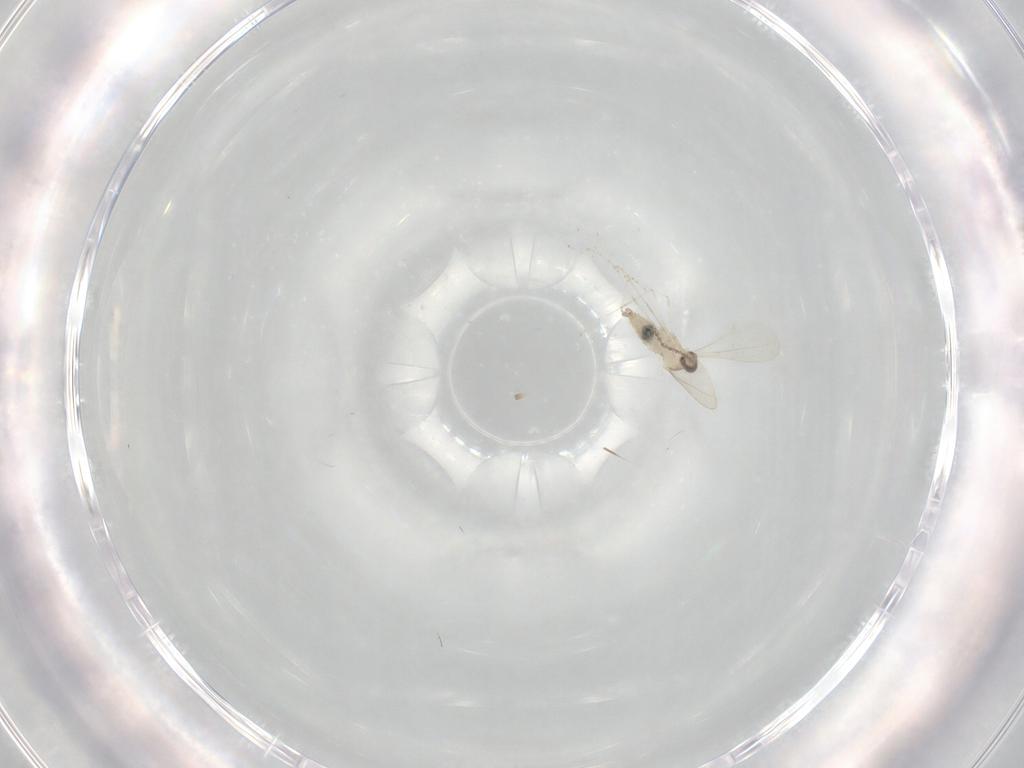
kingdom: Animalia
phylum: Arthropoda
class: Insecta
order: Diptera
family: Cecidomyiidae
